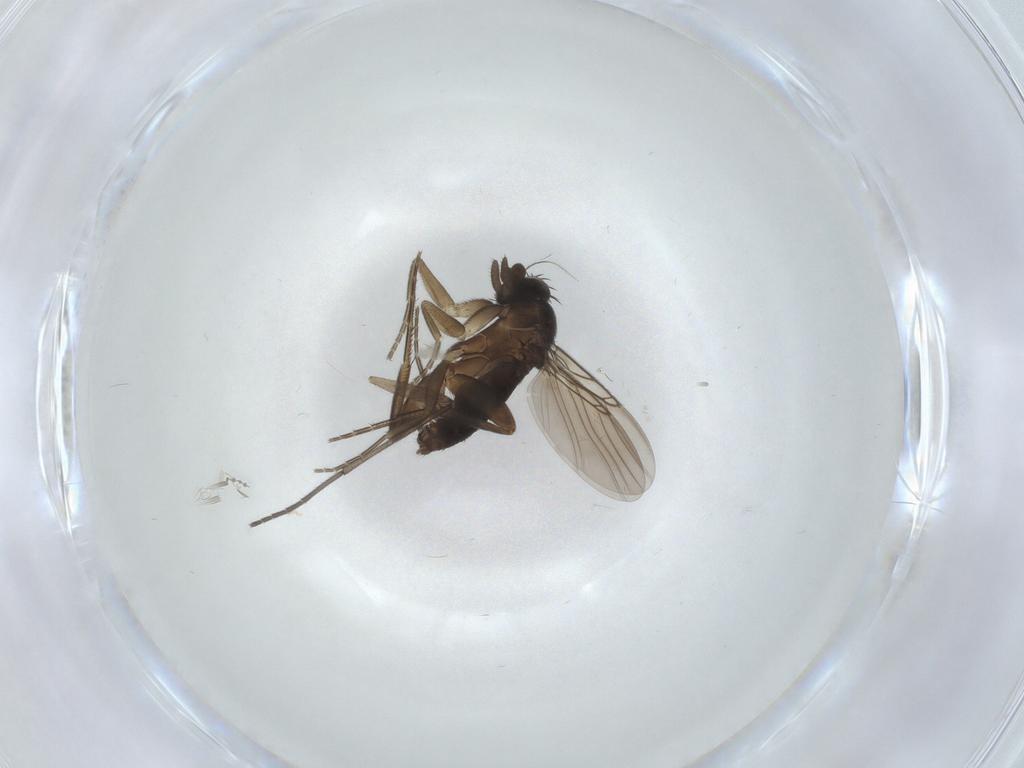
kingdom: Animalia
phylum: Arthropoda
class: Insecta
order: Diptera
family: Phoridae
